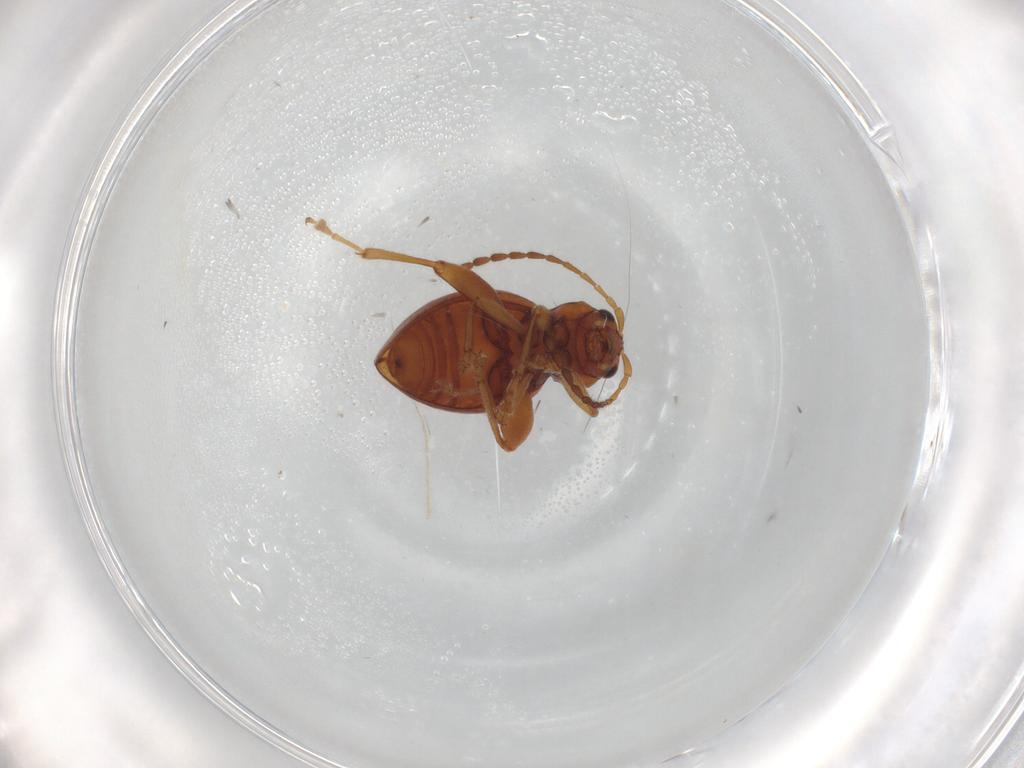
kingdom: Animalia
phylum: Arthropoda
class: Insecta
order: Coleoptera
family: Chrysomelidae
